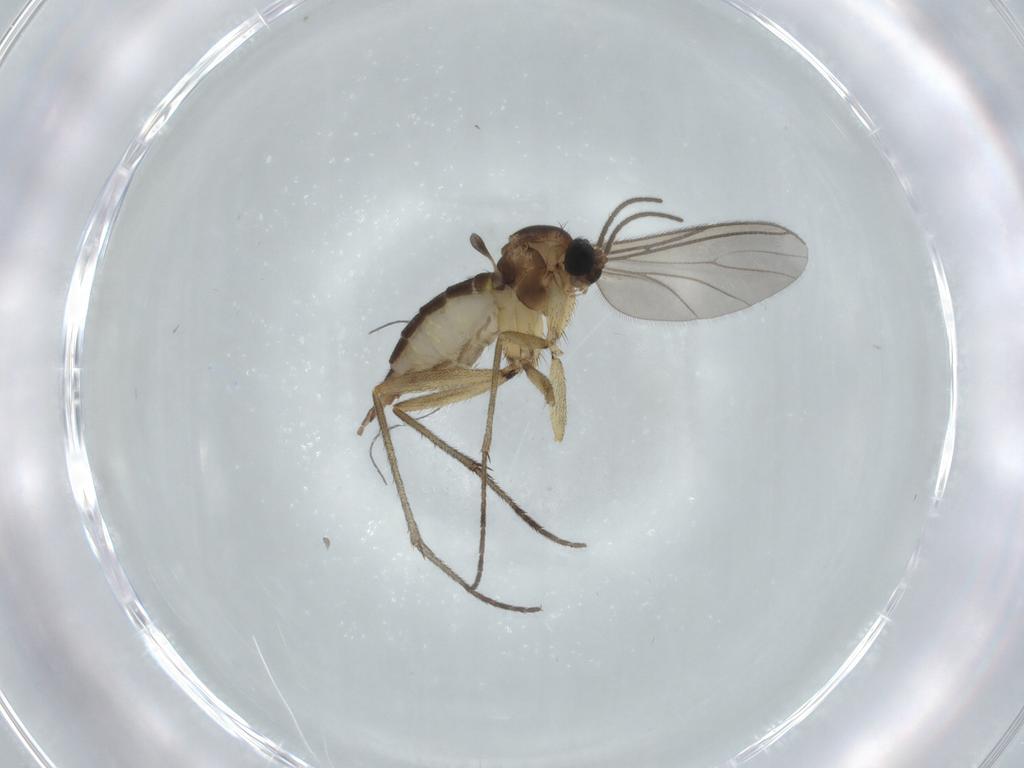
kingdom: Animalia
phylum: Arthropoda
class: Insecta
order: Diptera
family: Sciaridae
